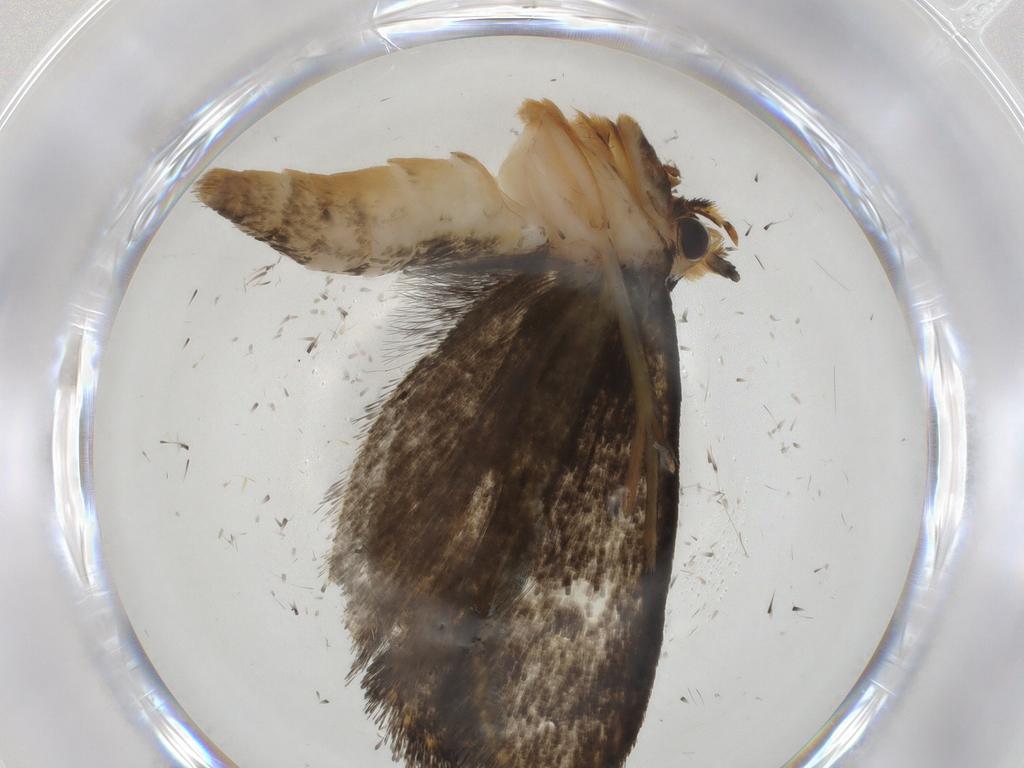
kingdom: Animalia
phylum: Arthropoda
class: Insecta
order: Lepidoptera
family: Tineidae
